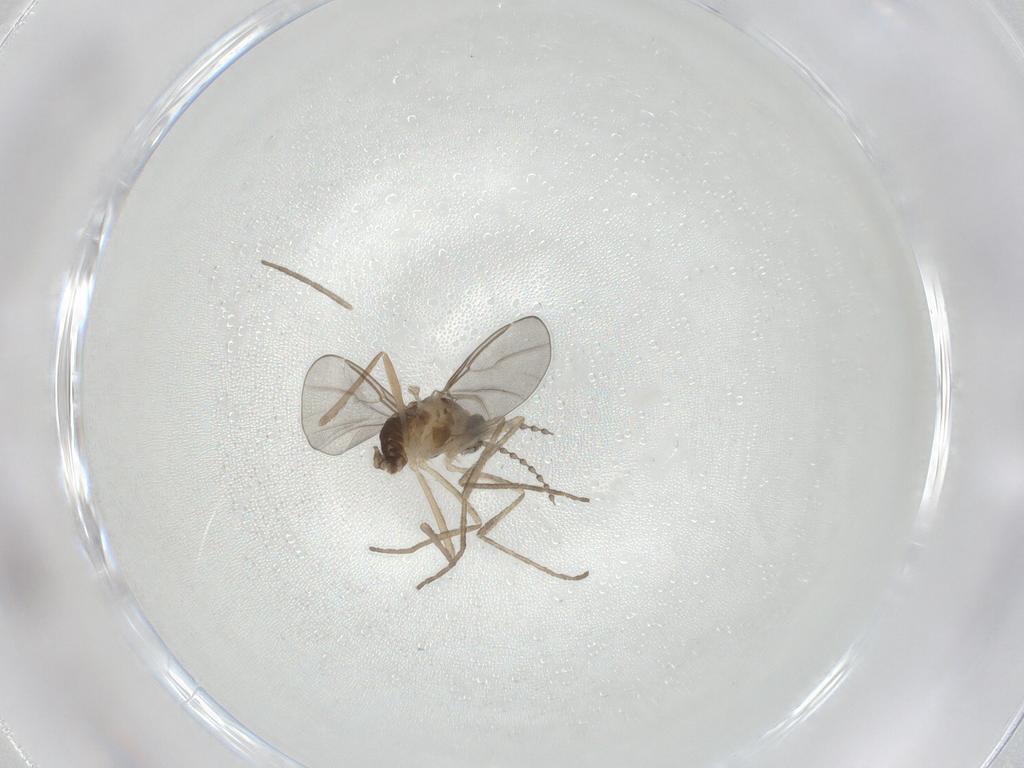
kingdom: Animalia
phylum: Arthropoda
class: Insecta
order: Diptera
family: Cecidomyiidae
